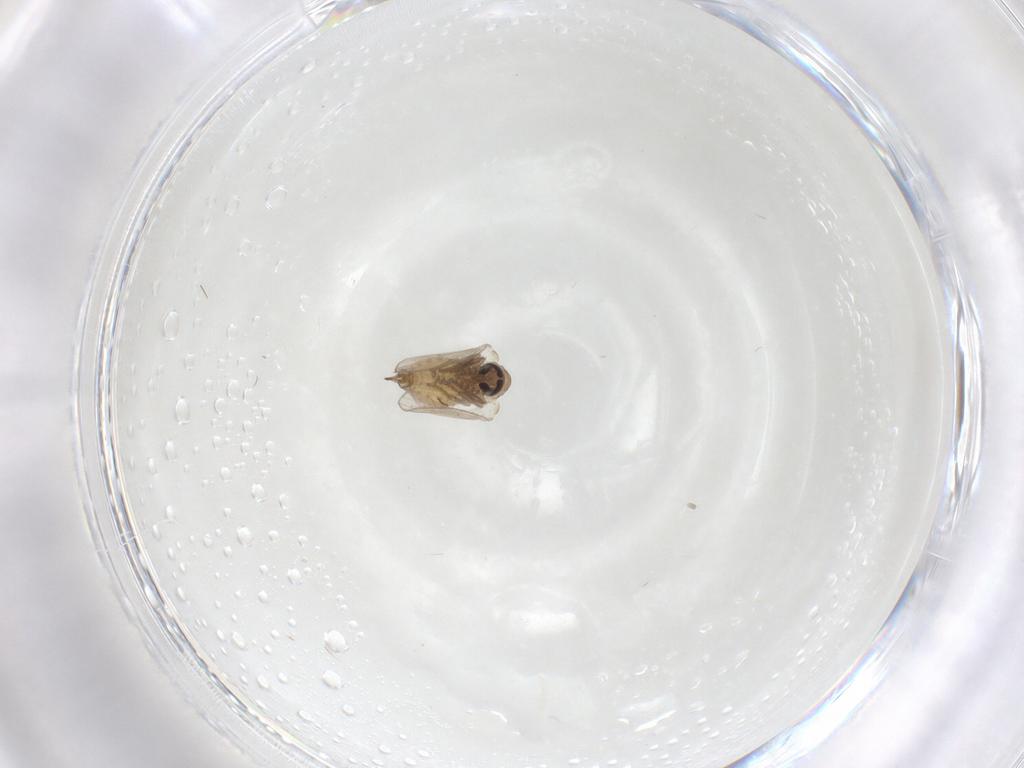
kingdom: Animalia
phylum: Arthropoda
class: Insecta
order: Diptera
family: Psychodidae
